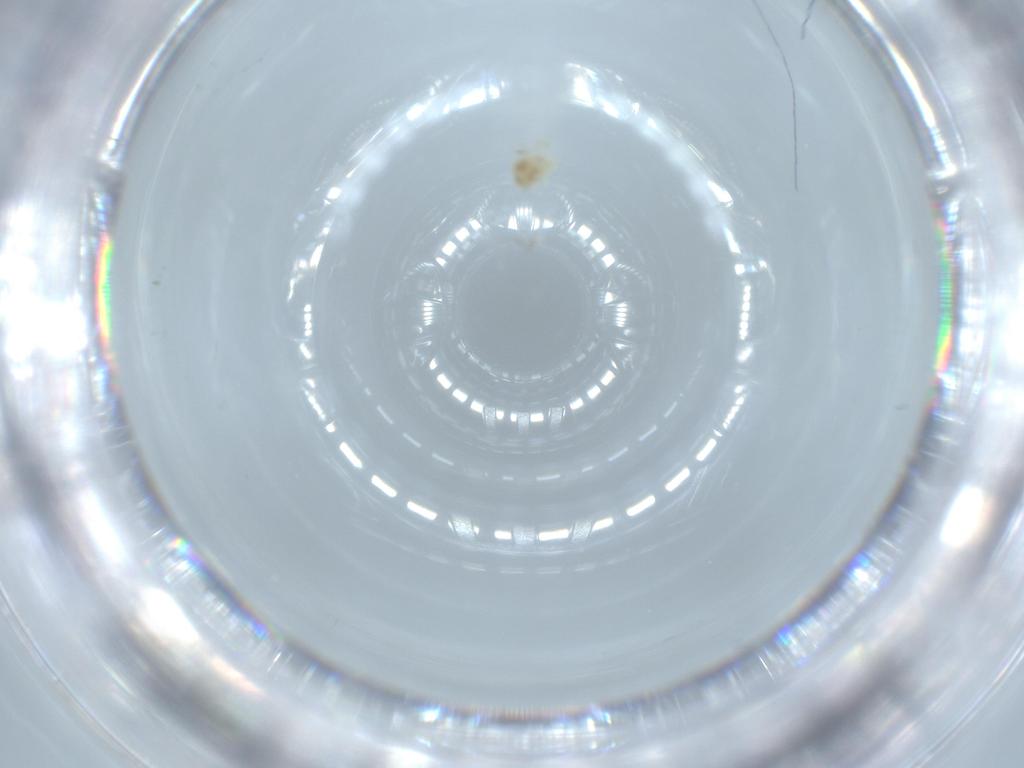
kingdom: Animalia
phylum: Arthropoda
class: Arachnida
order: Trombidiformes
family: Anystidae
